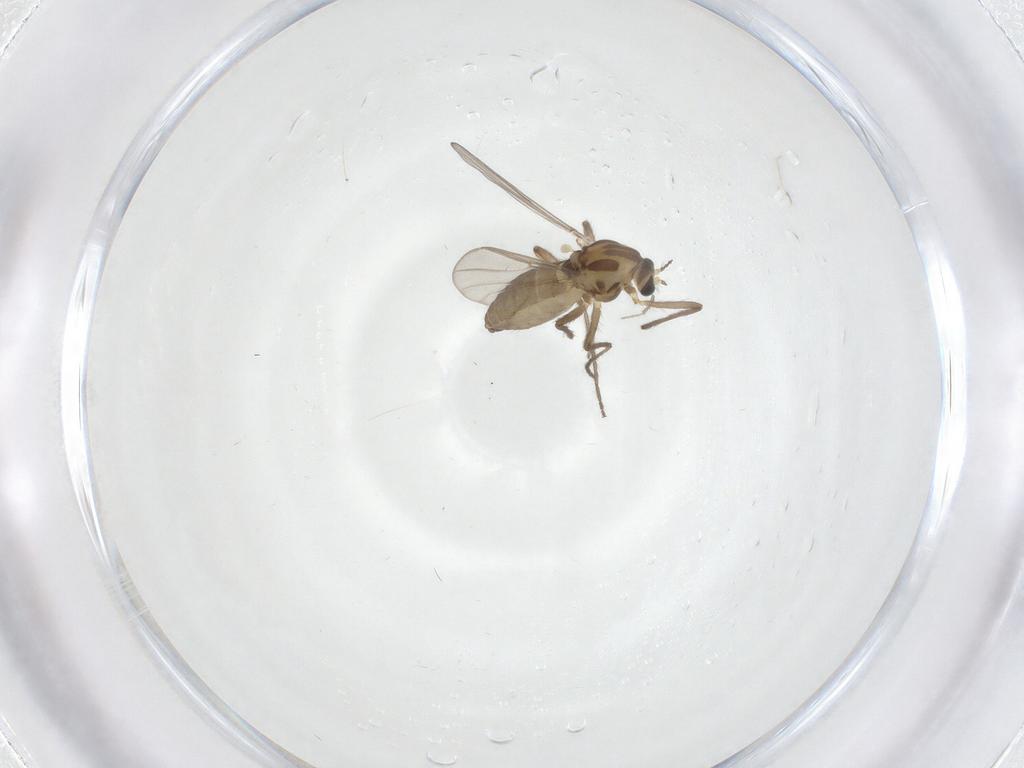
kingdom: Animalia
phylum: Arthropoda
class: Insecta
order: Diptera
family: Chironomidae
